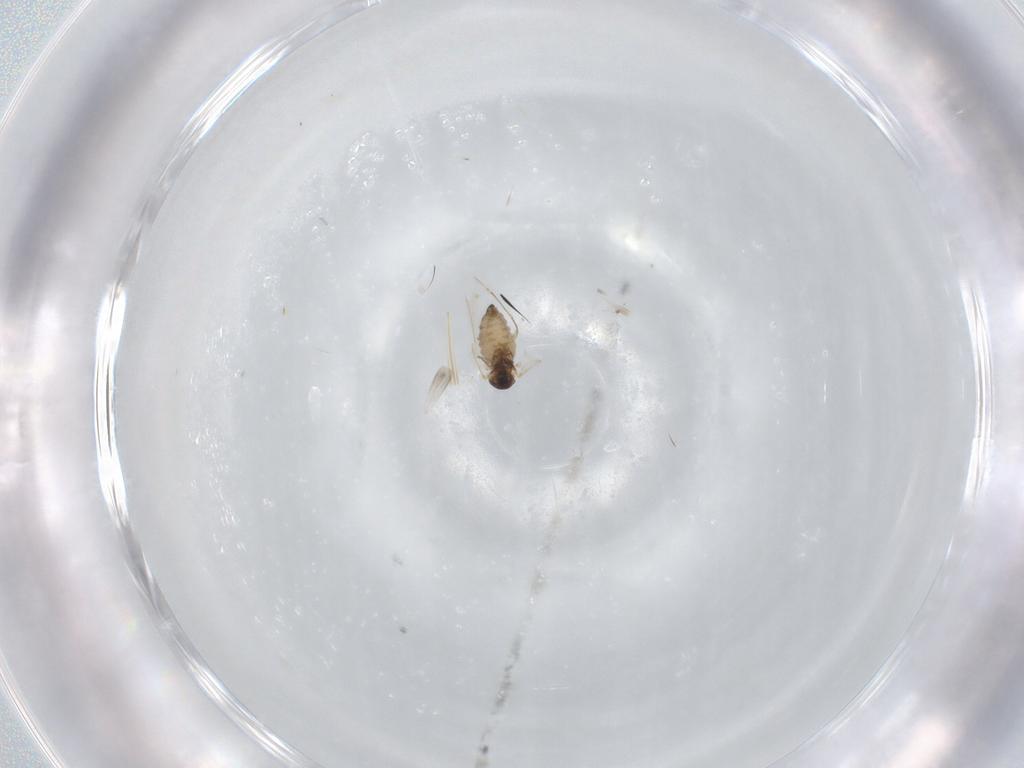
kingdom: Animalia
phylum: Arthropoda
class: Insecta
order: Diptera
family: Cecidomyiidae
